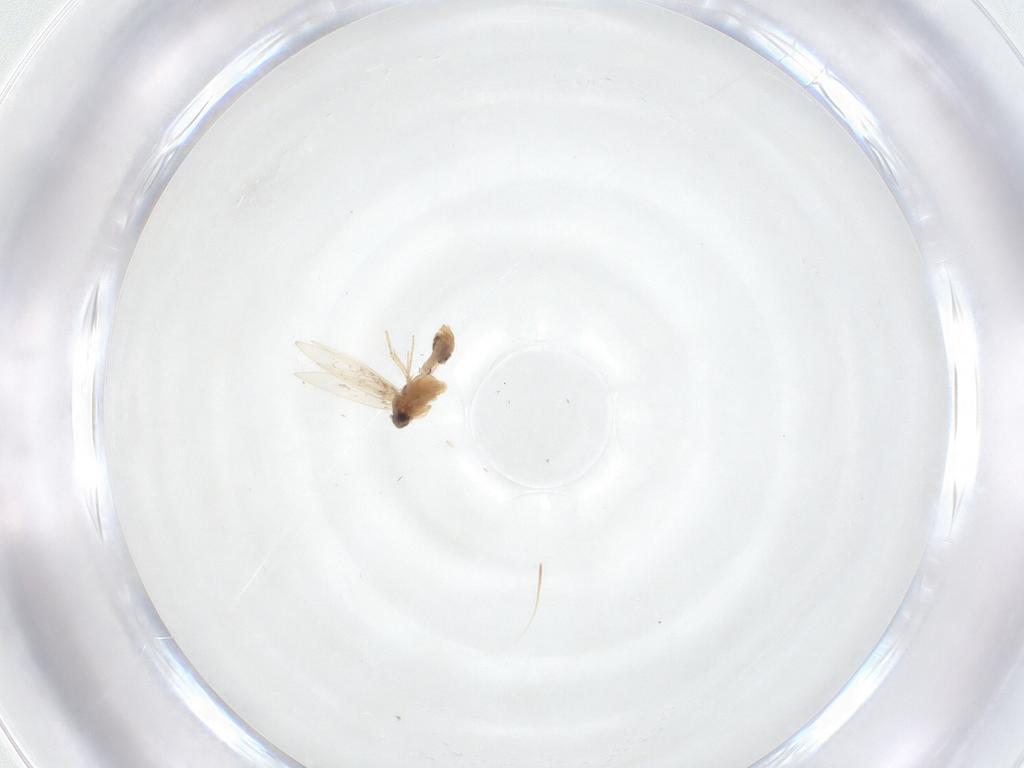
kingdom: Animalia
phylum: Arthropoda
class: Insecta
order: Lepidoptera
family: Nepticulidae
